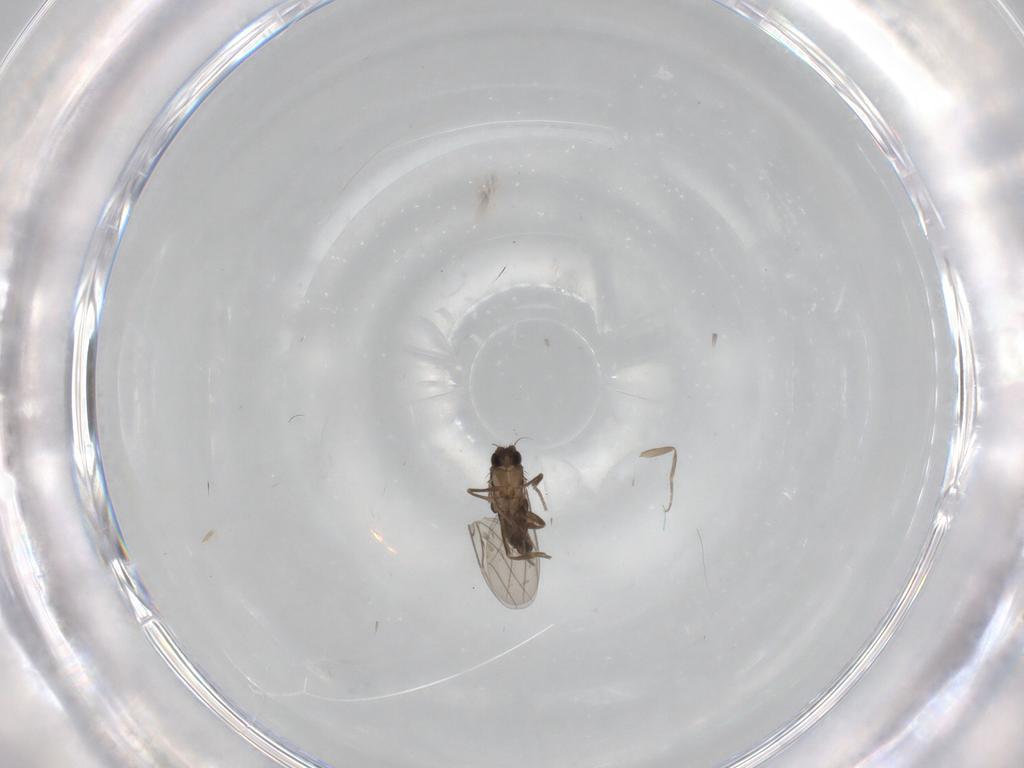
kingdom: Animalia
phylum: Arthropoda
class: Insecta
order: Diptera
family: Phoridae
